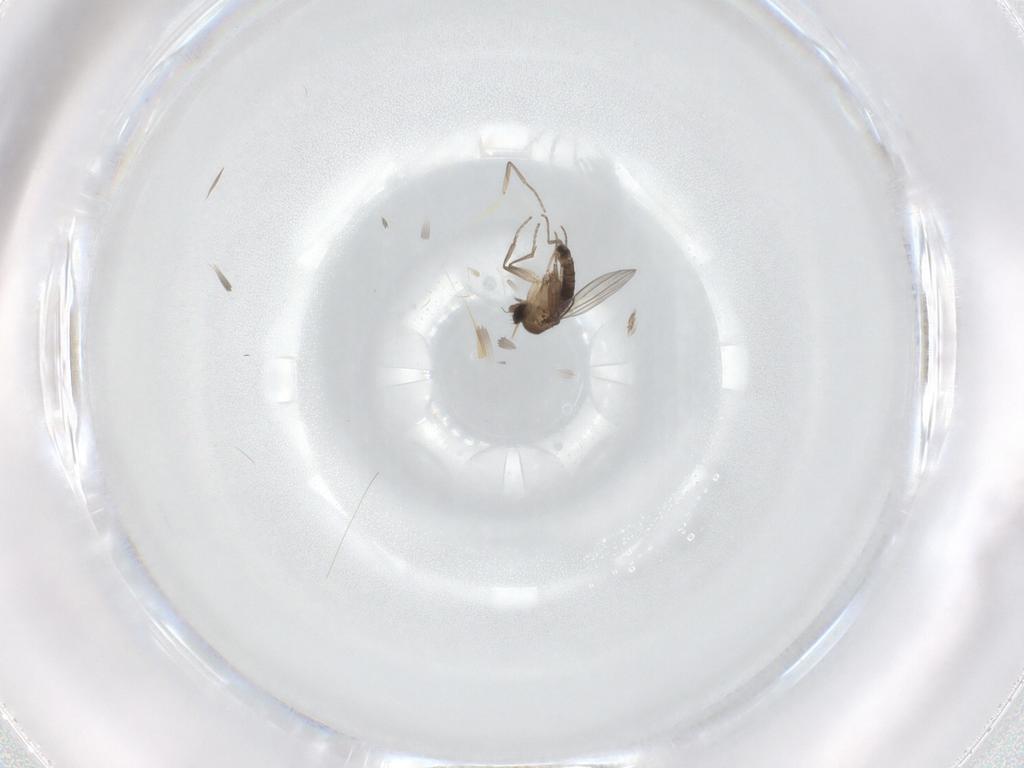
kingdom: Animalia
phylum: Arthropoda
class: Insecta
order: Diptera
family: Phoridae
